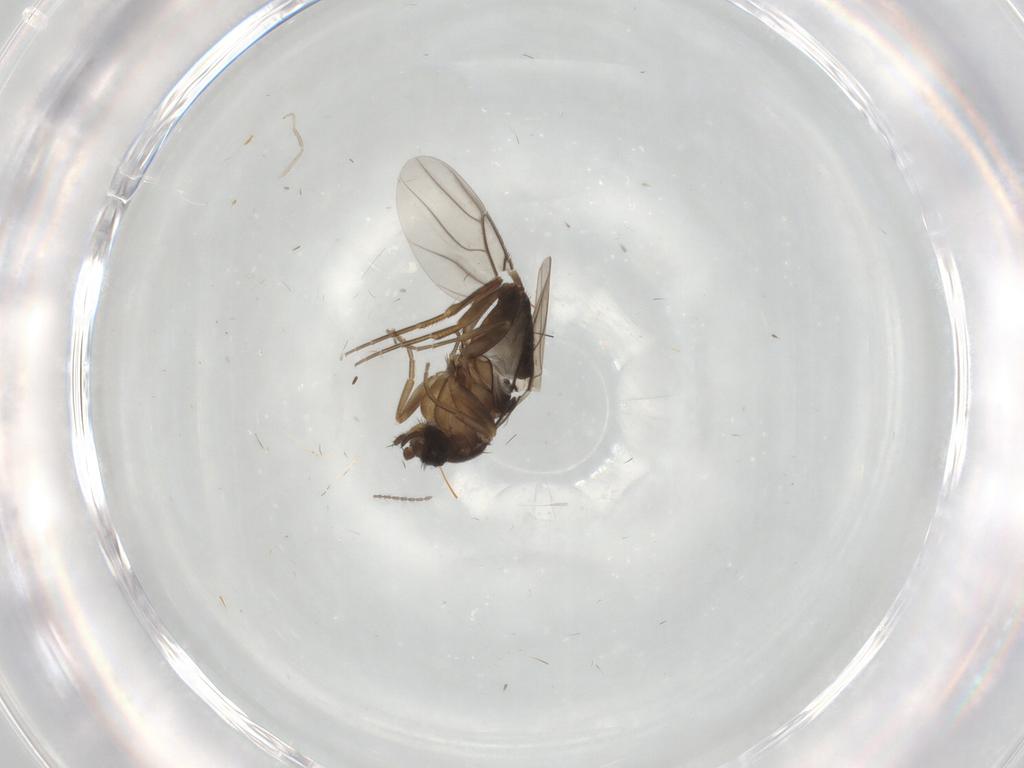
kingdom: Animalia
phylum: Arthropoda
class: Insecta
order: Diptera
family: Phoridae
